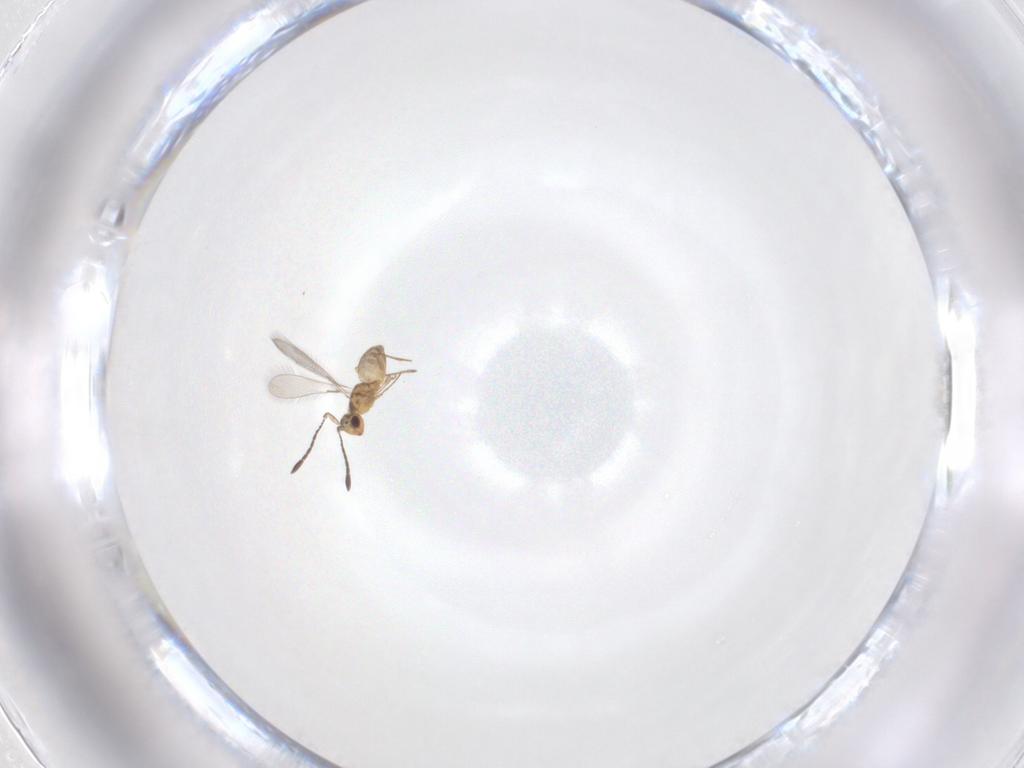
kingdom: Animalia
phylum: Arthropoda
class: Insecta
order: Hymenoptera
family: Mymaridae
